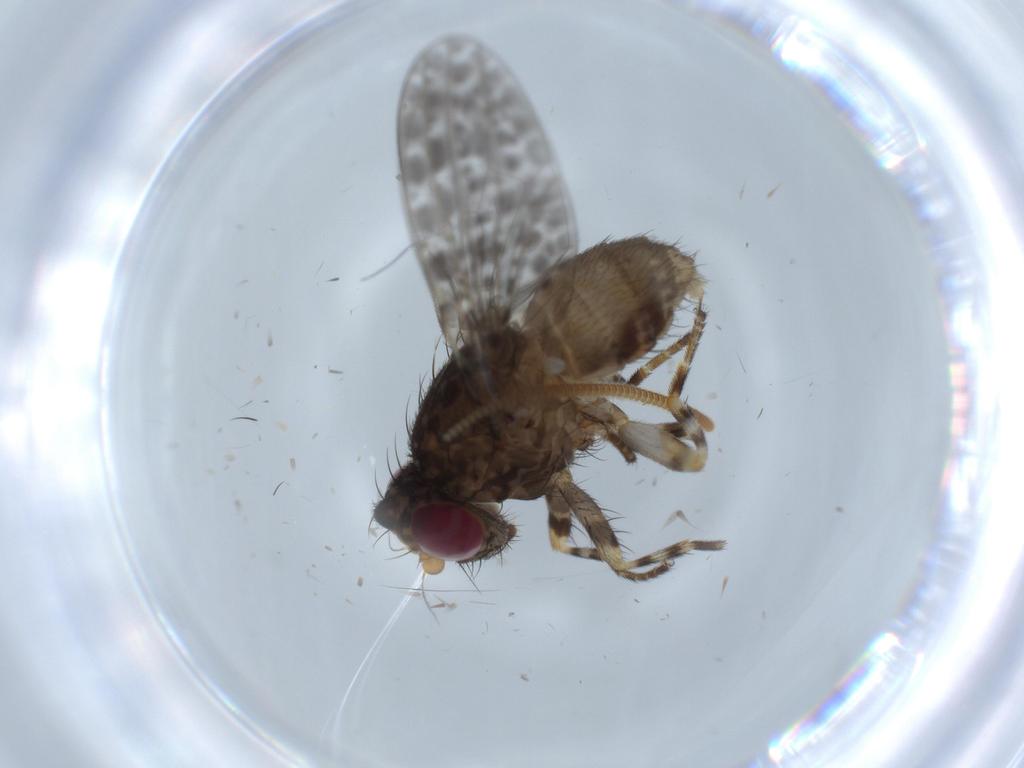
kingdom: Animalia
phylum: Arthropoda
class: Insecta
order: Diptera
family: Odiniidae
